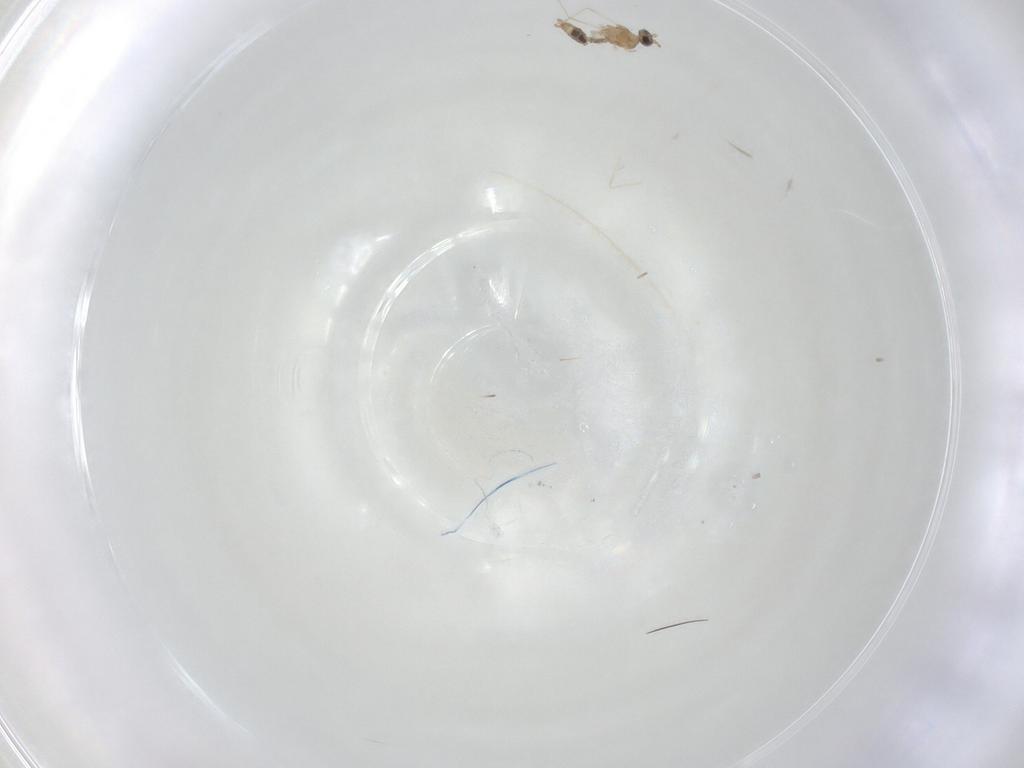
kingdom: Animalia
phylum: Arthropoda
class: Insecta
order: Diptera
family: Cecidomyiidae
